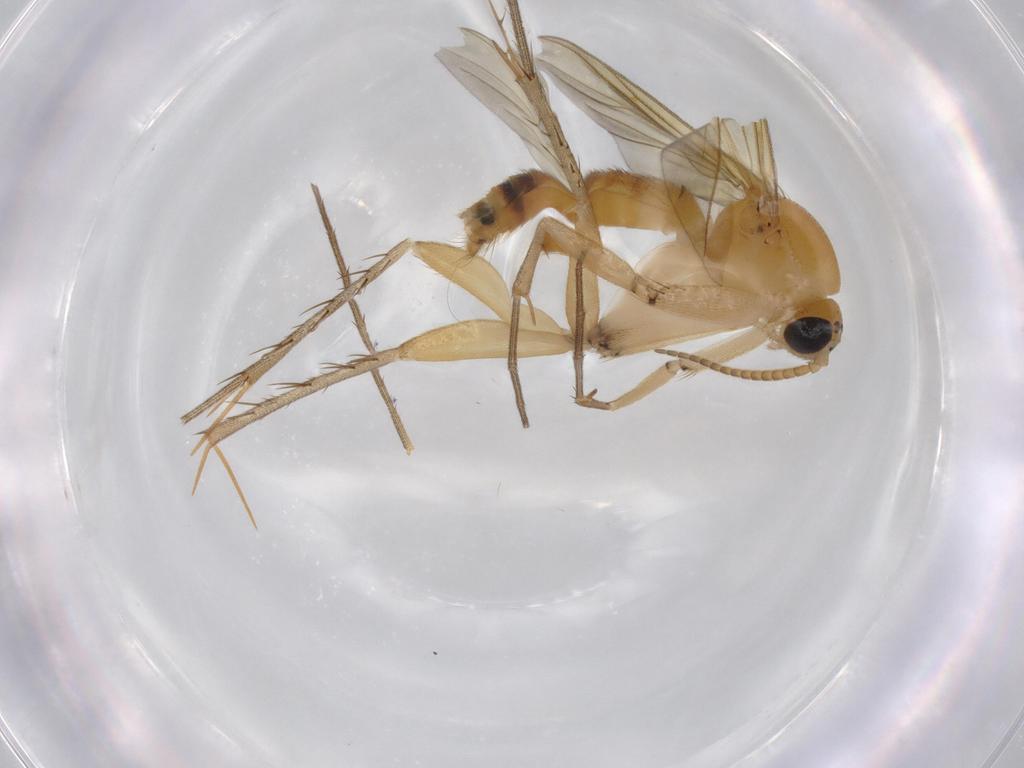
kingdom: Animalia
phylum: Arthropoda
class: Insecta
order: Diptera
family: Mycetophilidae
